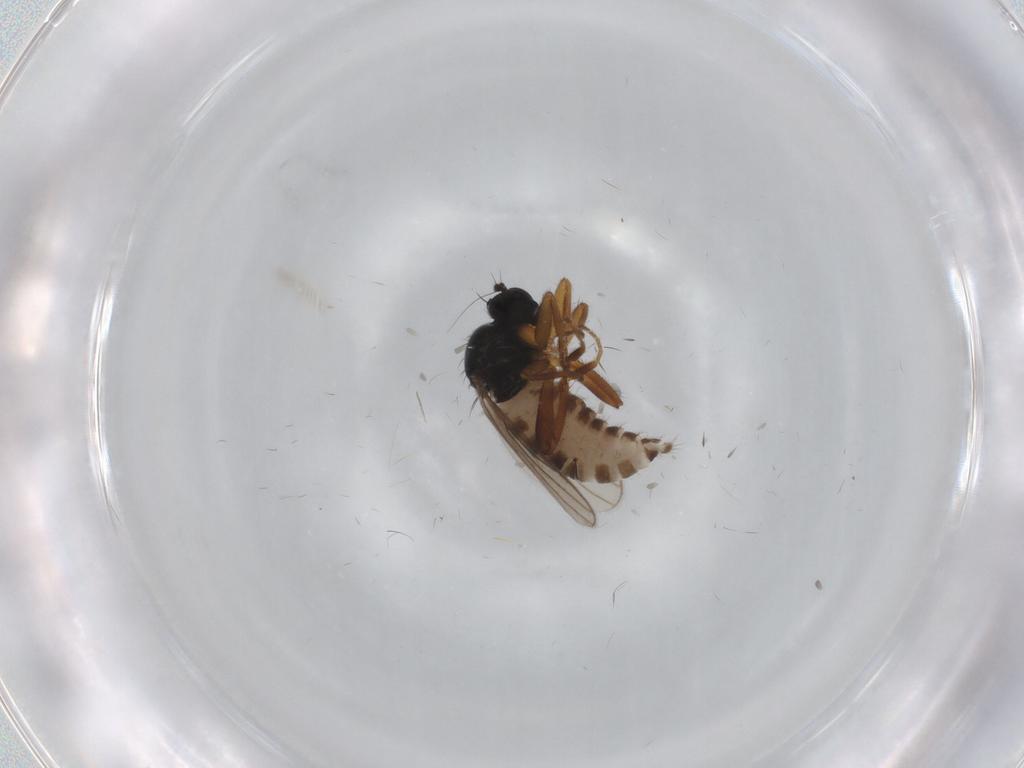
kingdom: Animalia
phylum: Arthropoda
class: Insecta
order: Diptera
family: Hybotidae
